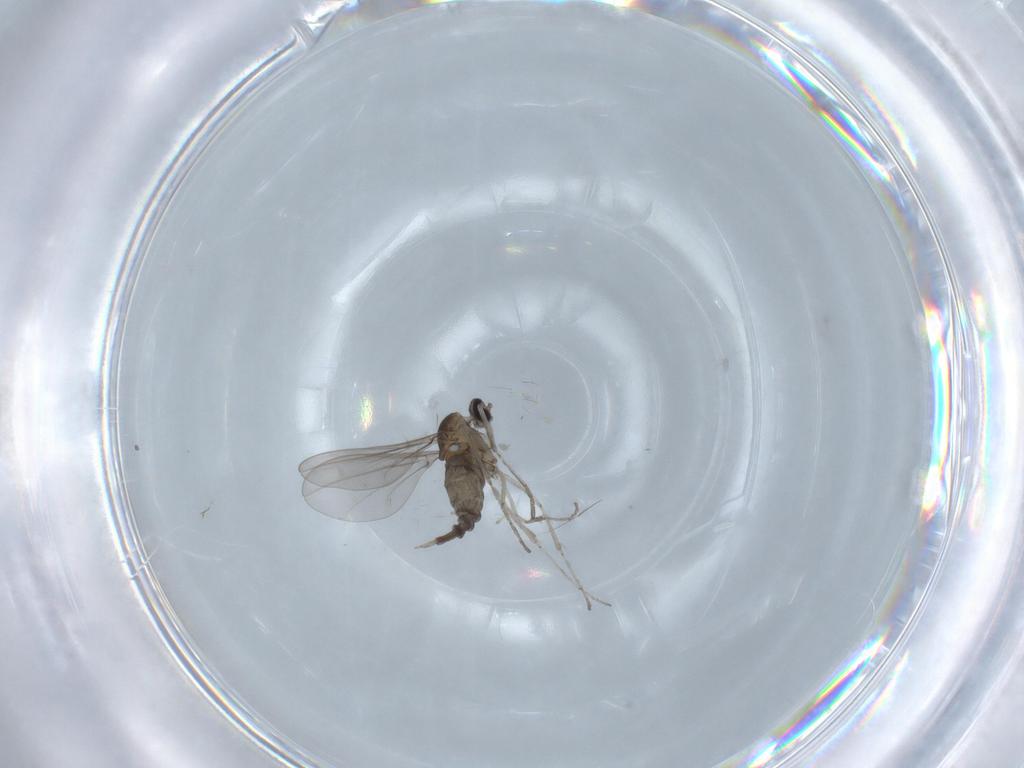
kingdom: Animalia
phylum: Arthropoda
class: Insecta
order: Diptera
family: Cecidomyiidae
